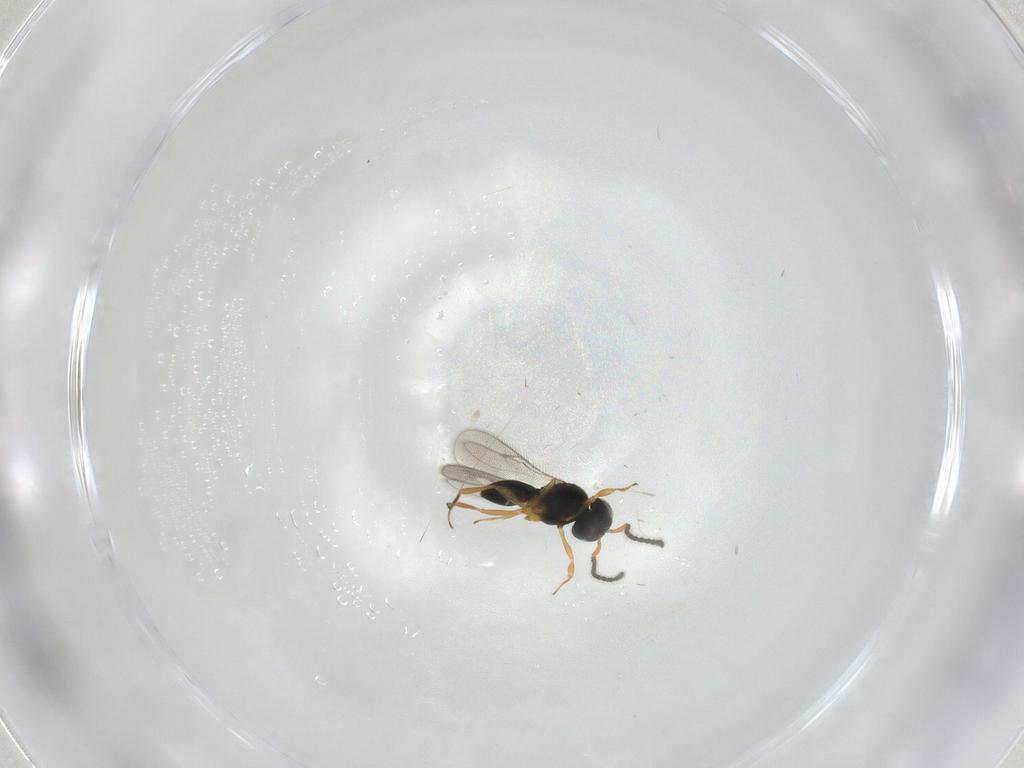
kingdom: Animalia
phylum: Arthropoda
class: Insecta
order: Hymenoptera
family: Scelionidae
